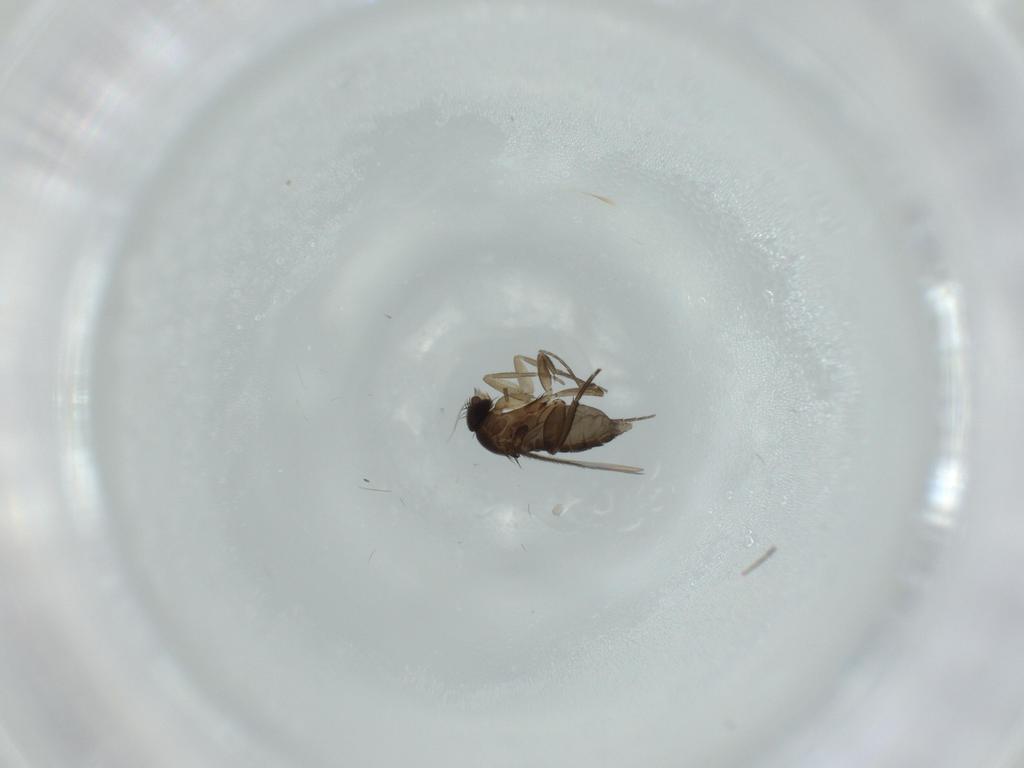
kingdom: Animalia
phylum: Arthropoda
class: Insecta
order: Diptera
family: Phoridae
